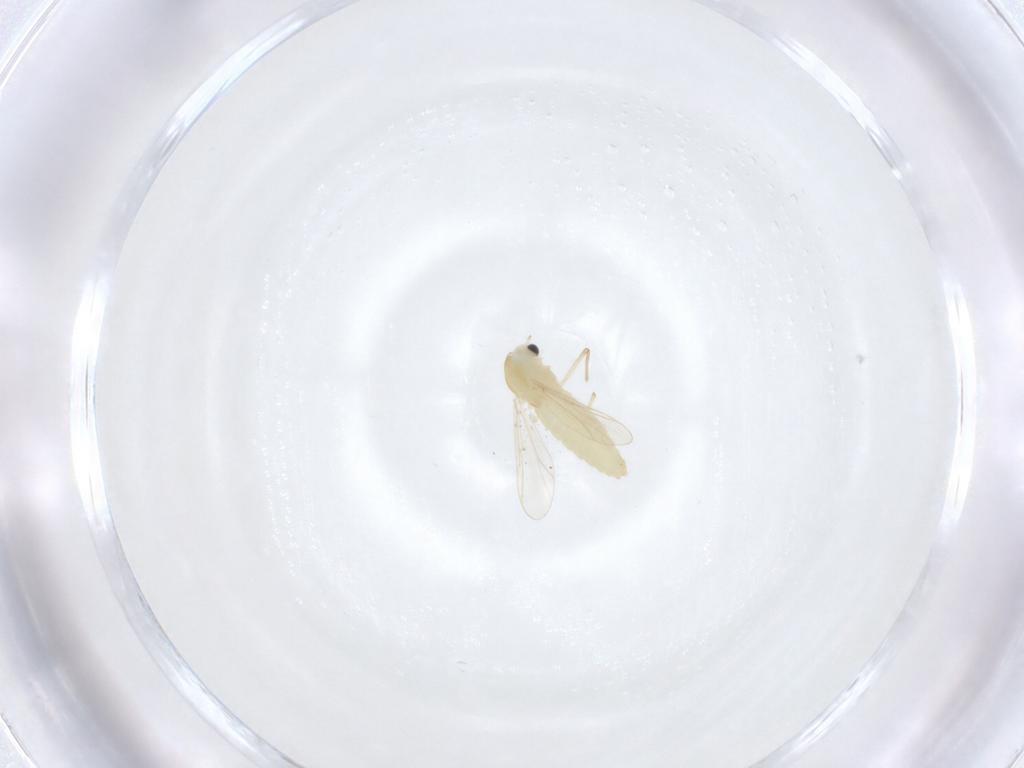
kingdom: Animalia
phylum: Arthropoda
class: Insecta
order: Diptera
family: Chironomidae
